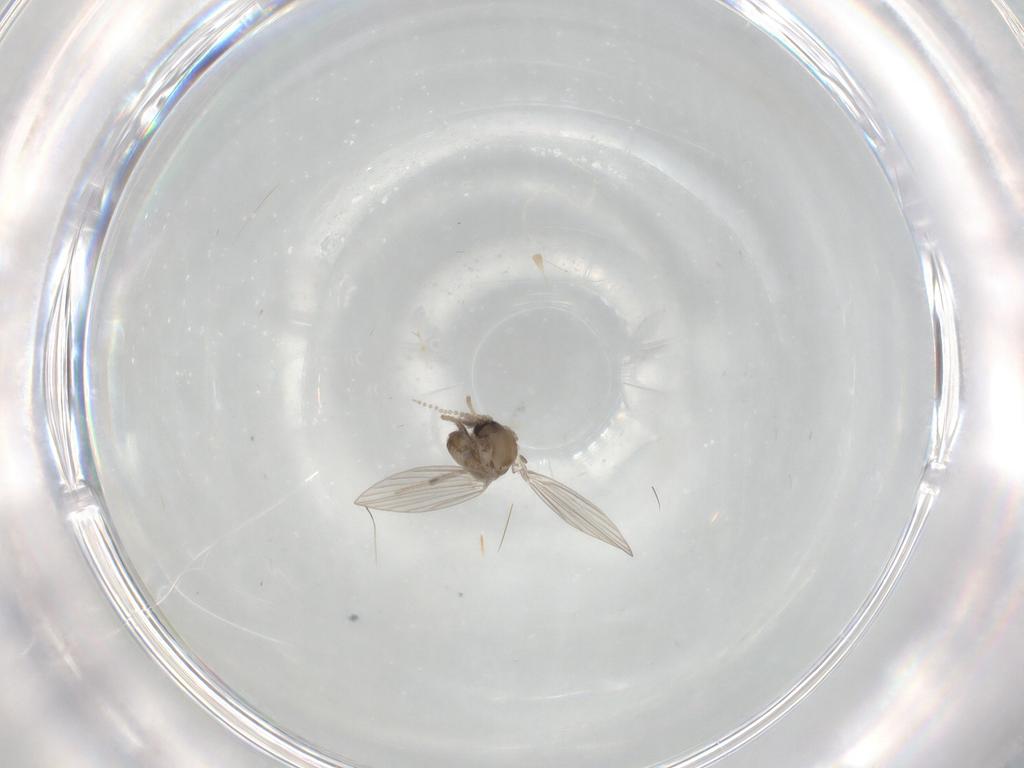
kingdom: Animalia
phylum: Arthropoda
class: Insecta
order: Diptera
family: Psychodidae
